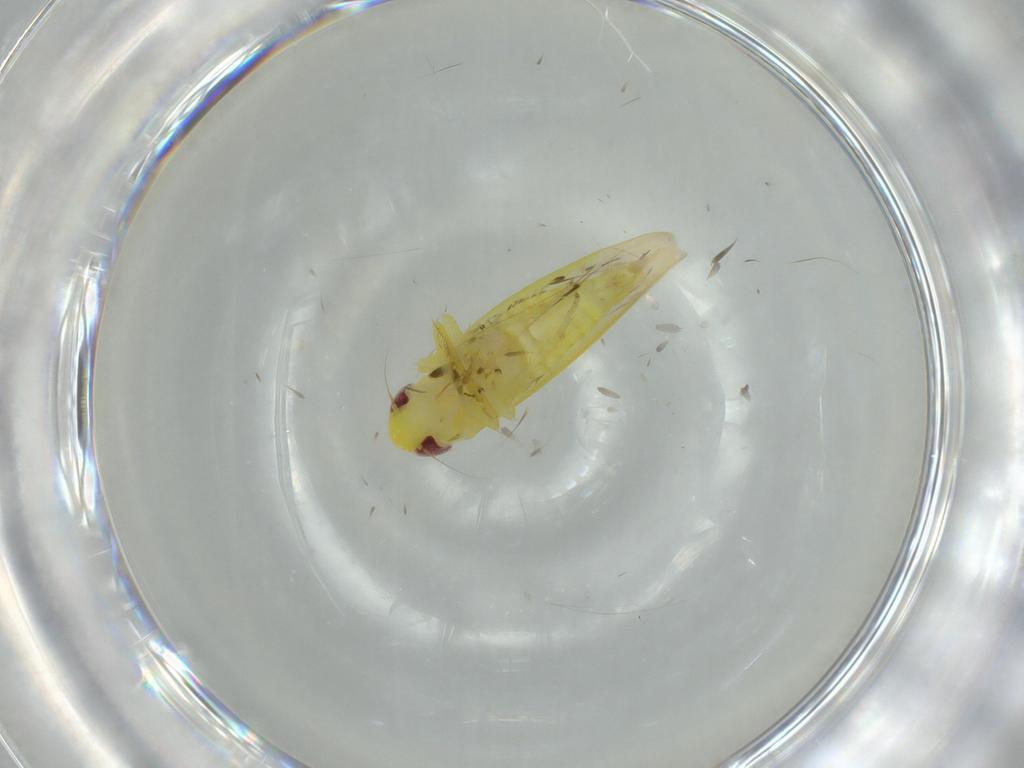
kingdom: Animalia
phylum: Arthropoda
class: Insecta
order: Hemiptera
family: Cicadellidae
